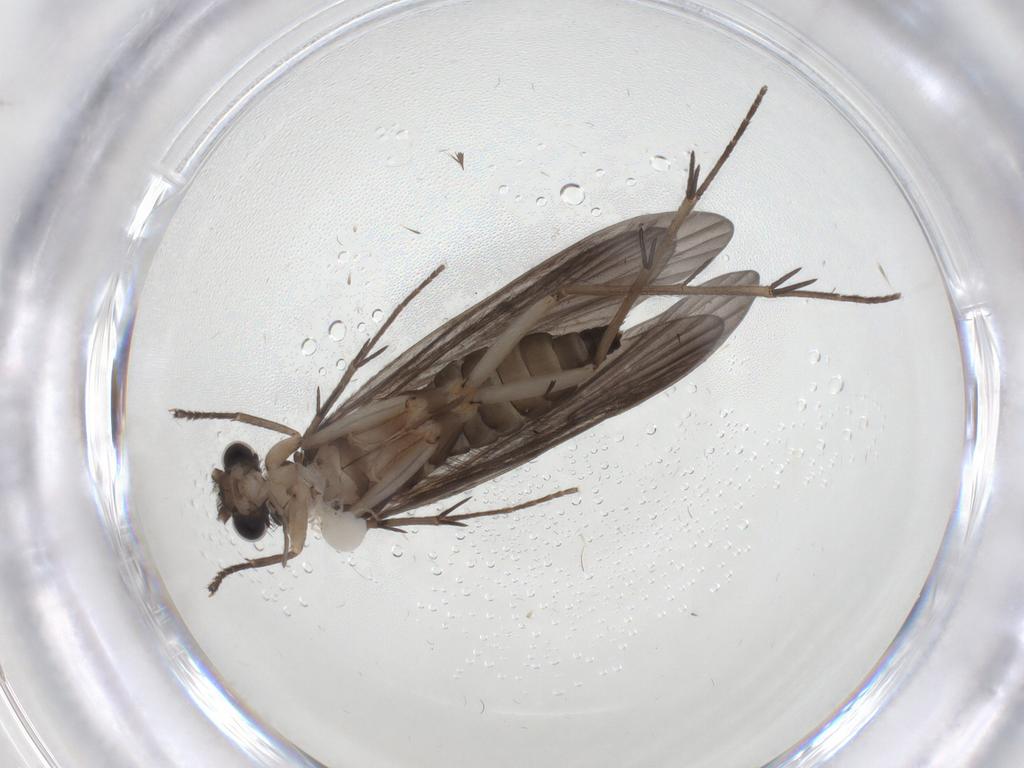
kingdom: Animalia
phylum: Arthropoda
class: Insecta
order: Trichoptera
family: Philopotamidae
